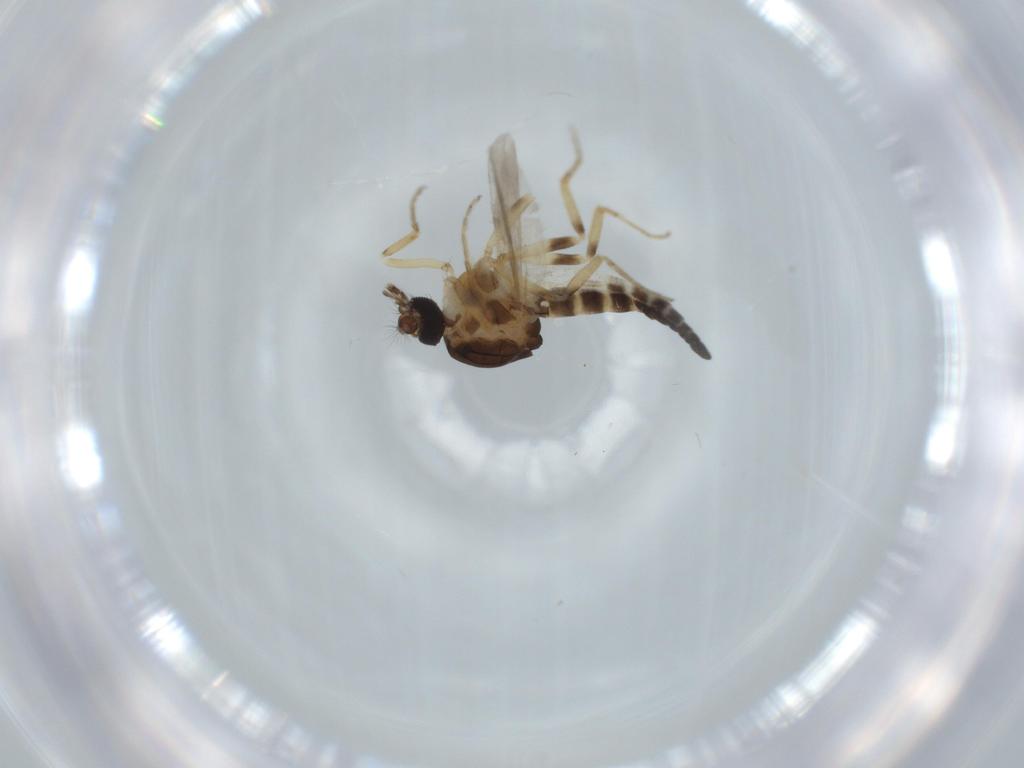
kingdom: Animalia
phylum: Arthropoda
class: Insecta
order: Diptera
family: Ceratopogonidae
